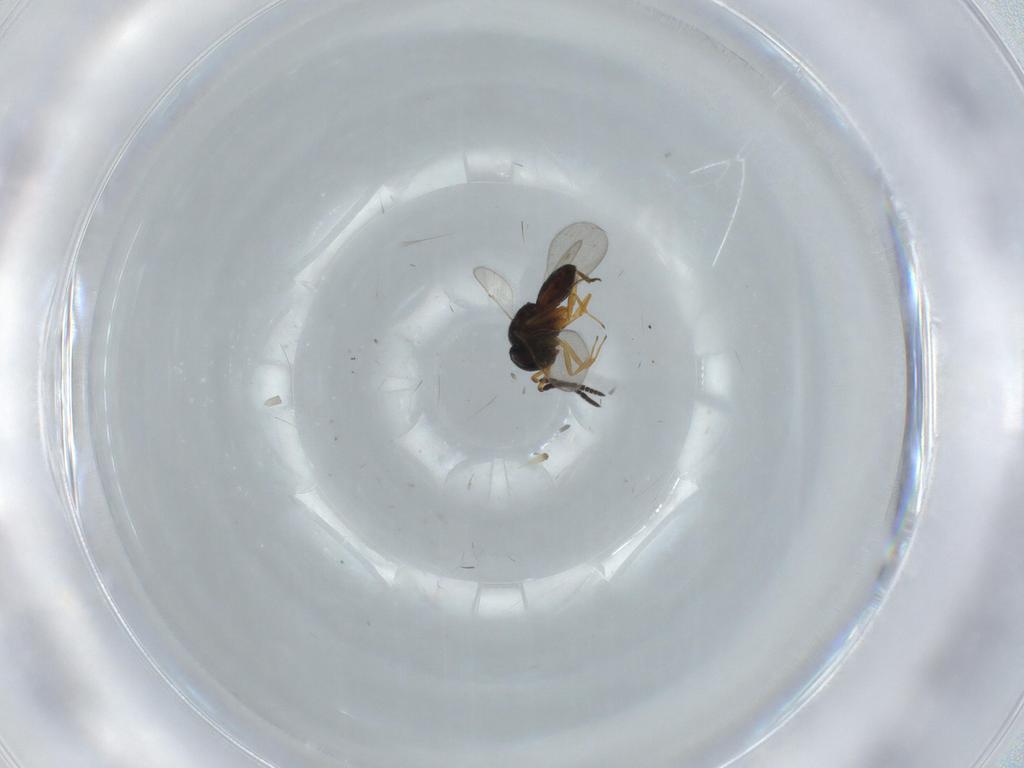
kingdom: Animalia
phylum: Arthropoda
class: Insecta
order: Coleoptera
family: Curculionidae
